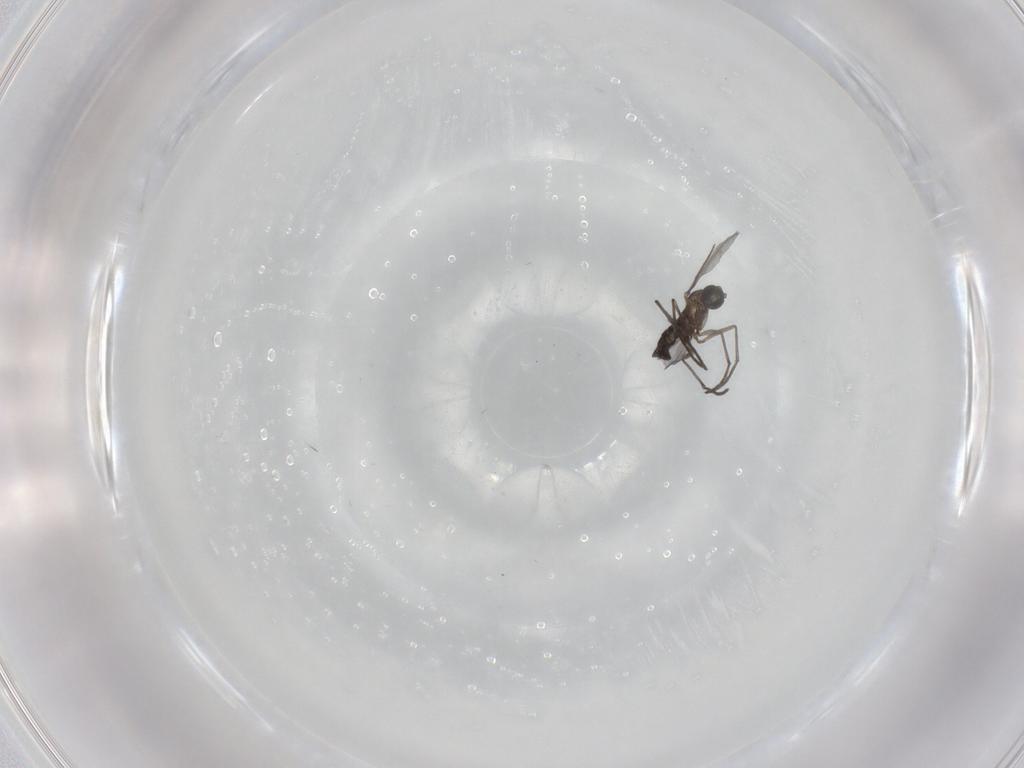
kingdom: Animalia
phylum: Arthropoda
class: Insecta
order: Diptera
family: Sciaridae
